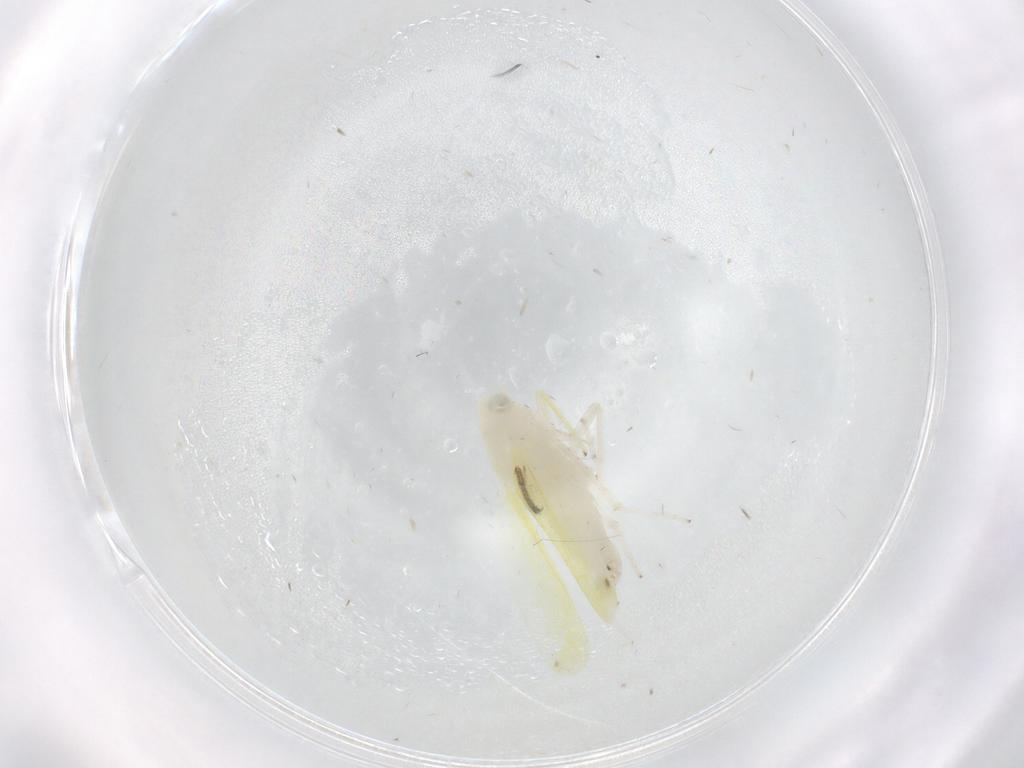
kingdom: Animalia
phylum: Arthropoda
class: Insecta
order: Hemiptera
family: Cicadellidae
